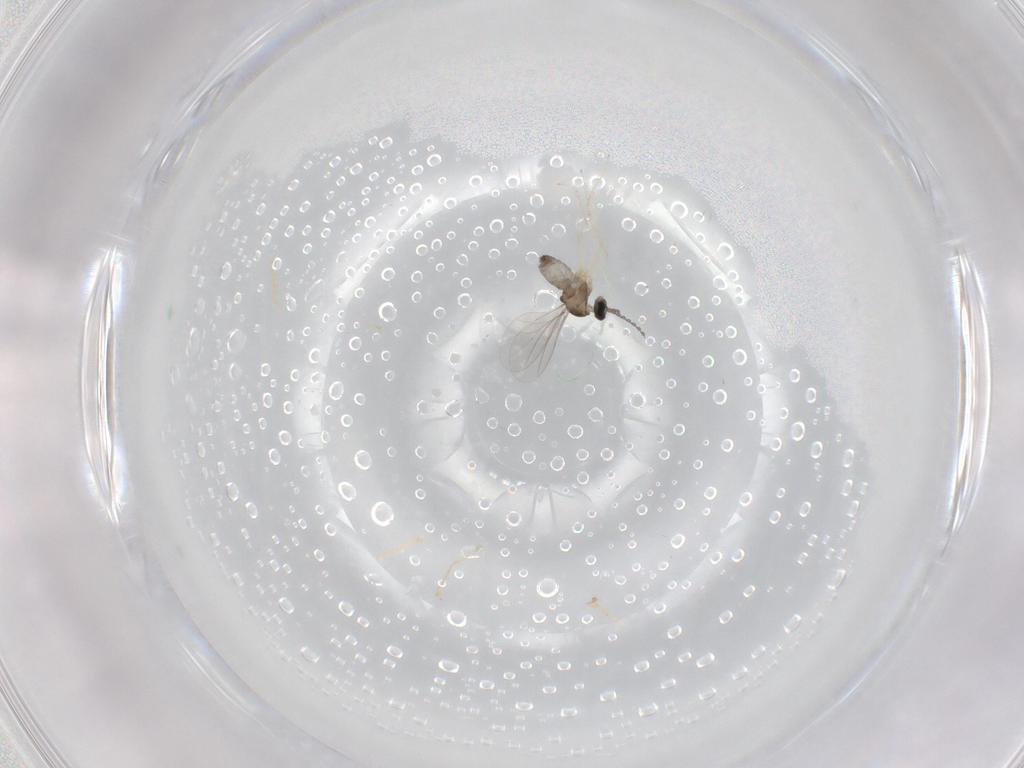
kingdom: Animalia
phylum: Arthropoda
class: Insecta
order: Diptera
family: Cecidomyiidae
